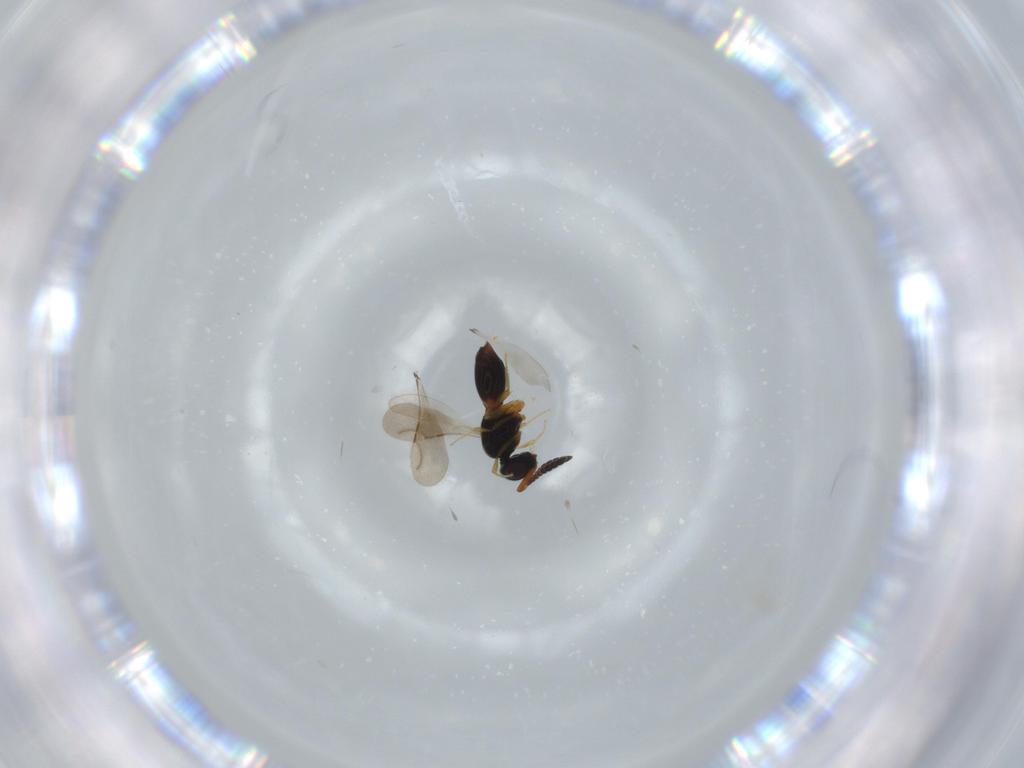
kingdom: Animalia
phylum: Arthropoda
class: Insecta
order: Hymenoptera
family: Ceraphronidae
